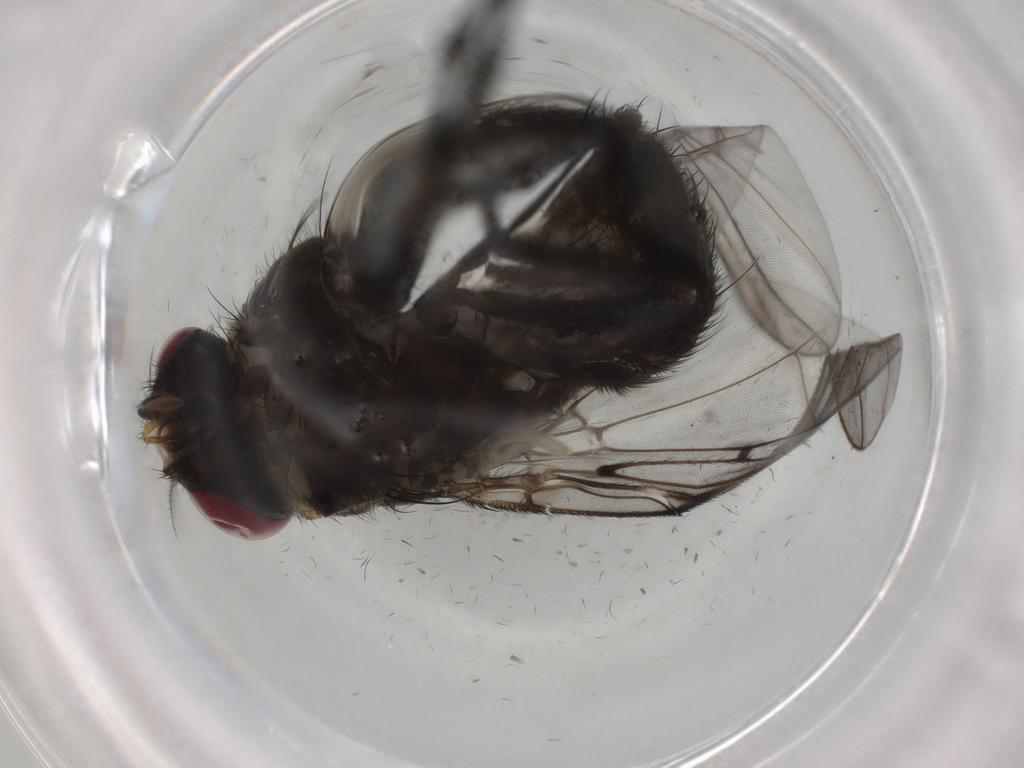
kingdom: Animalia
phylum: Arthropoda
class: Insecta
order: Diptera
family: Muscidae
